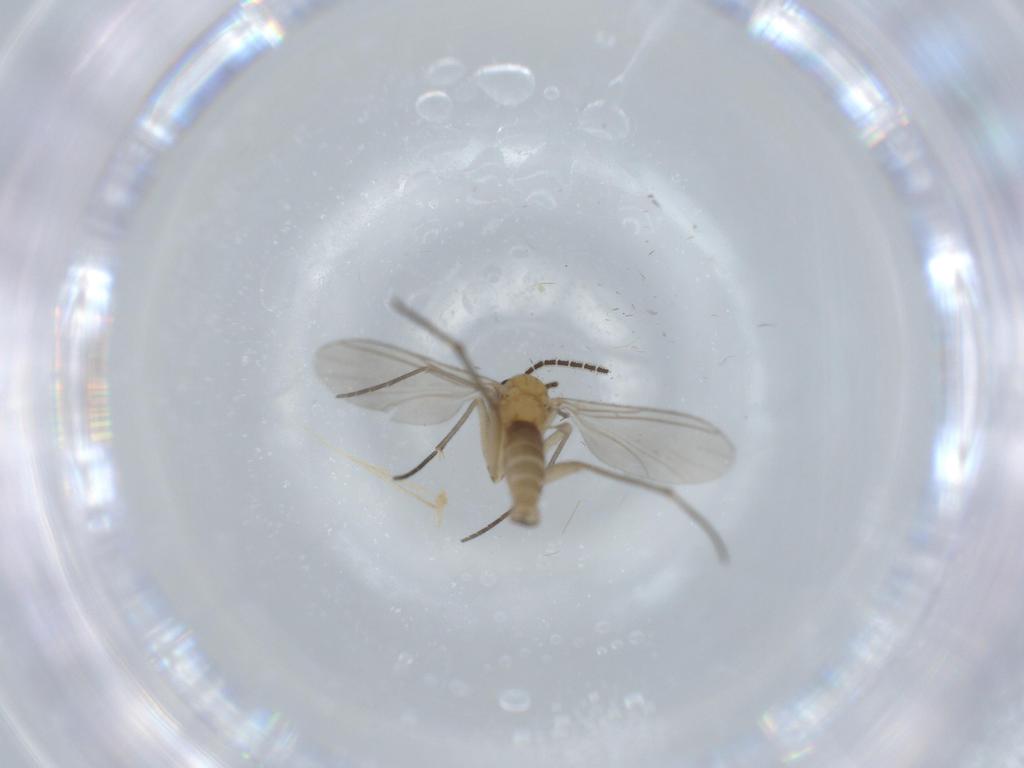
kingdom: Animalia
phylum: Arthropoda
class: Insecta
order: Diptera
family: Sciaridae
